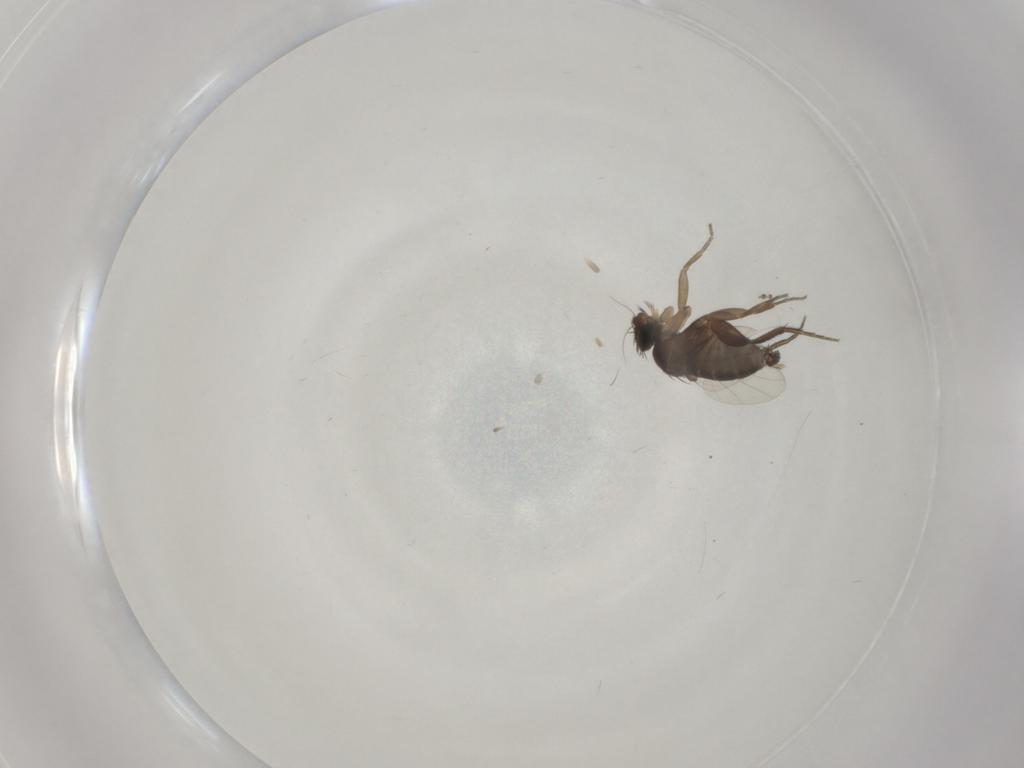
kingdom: Animalia
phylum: Arthropoda
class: Insecta
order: Diptera
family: Phoridae
